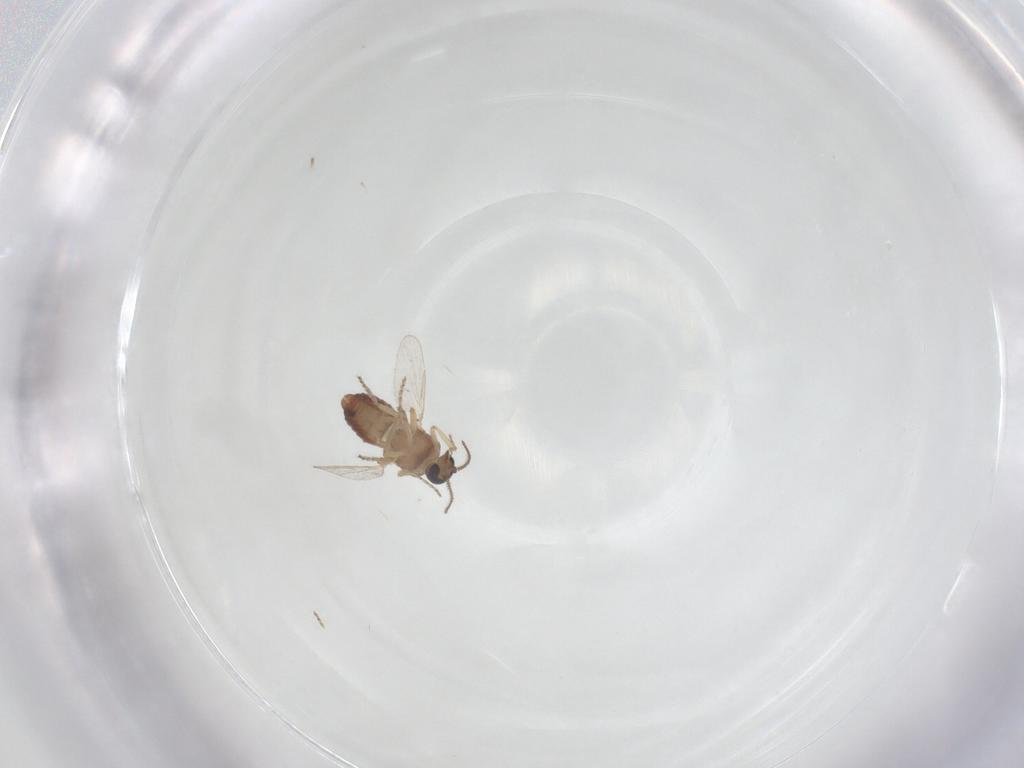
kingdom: Animalia
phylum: Arthropoda
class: Insecta
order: Diptera
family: Ceratopogonidae
